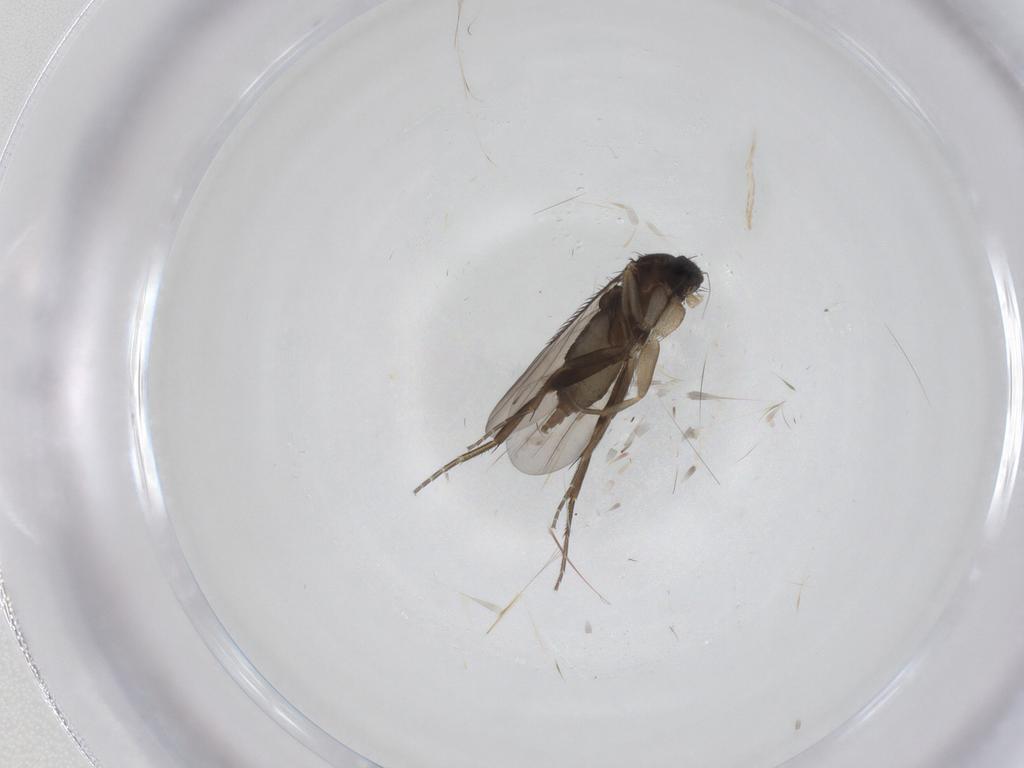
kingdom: Animalia
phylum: Arthropoda
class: Insecta
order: Diptera
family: Phoridae
